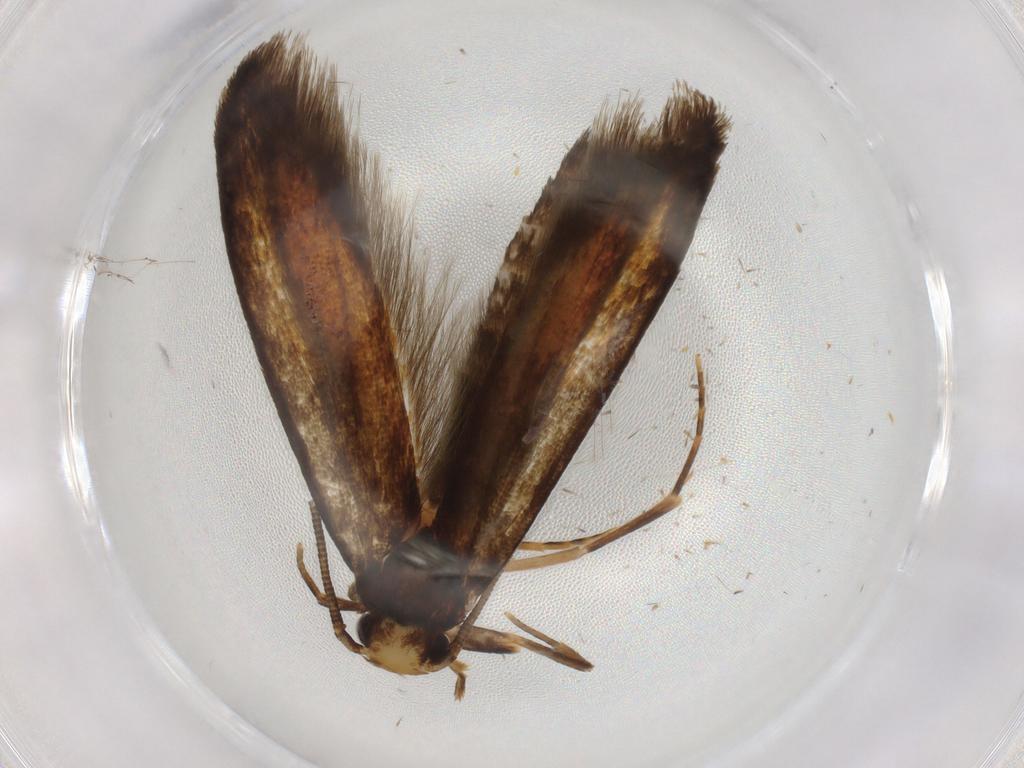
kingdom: Animalia
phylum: Arthropoda
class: Insecta
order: Lepidoptera
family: Tineidae
